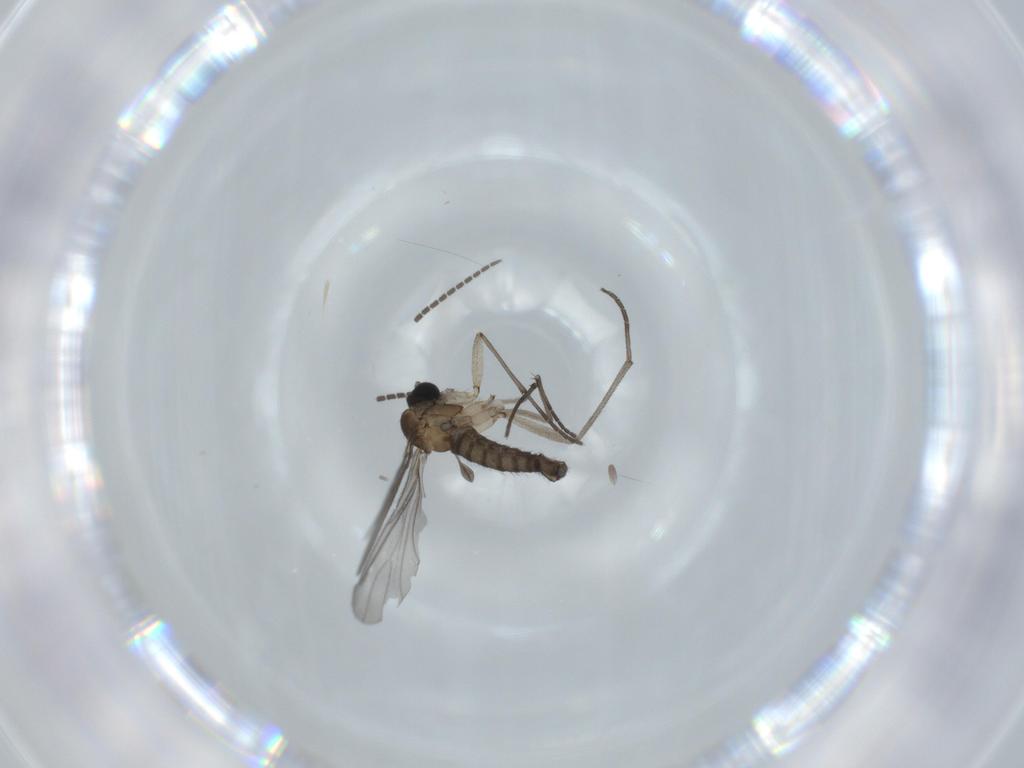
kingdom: Animalia
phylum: Arthropoda
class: Insecta
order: Diptera
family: Sciaridae
